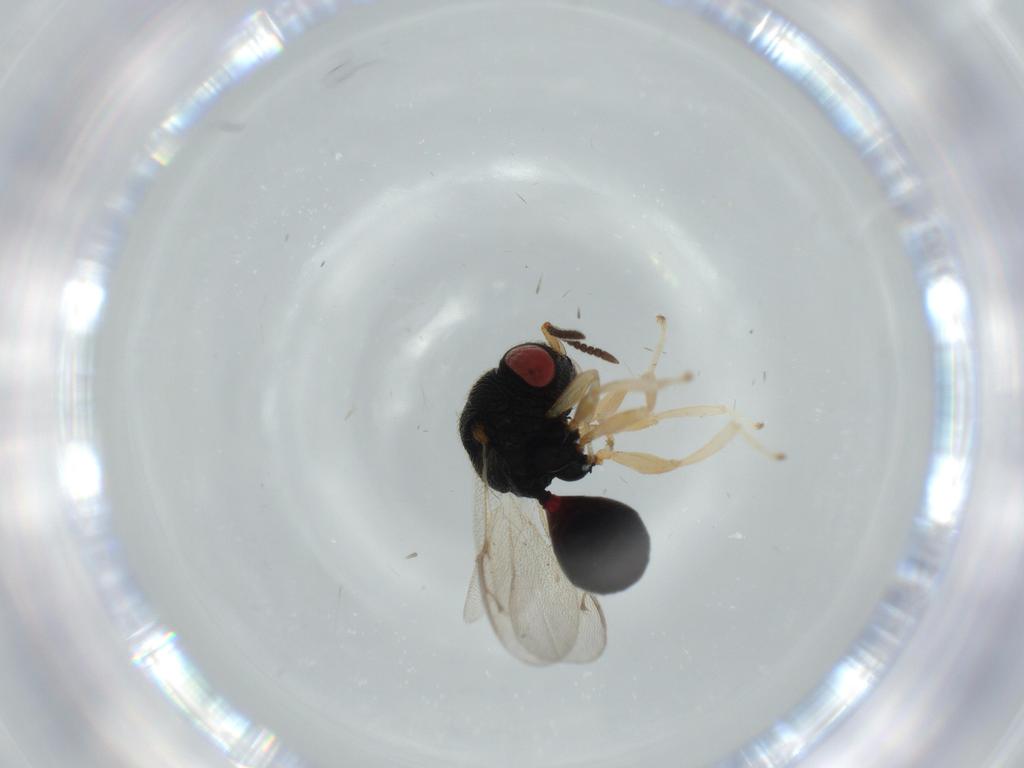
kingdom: Animalia
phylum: Arthropoda
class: Insecta
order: Hymenoptera
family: Eurytomidae
